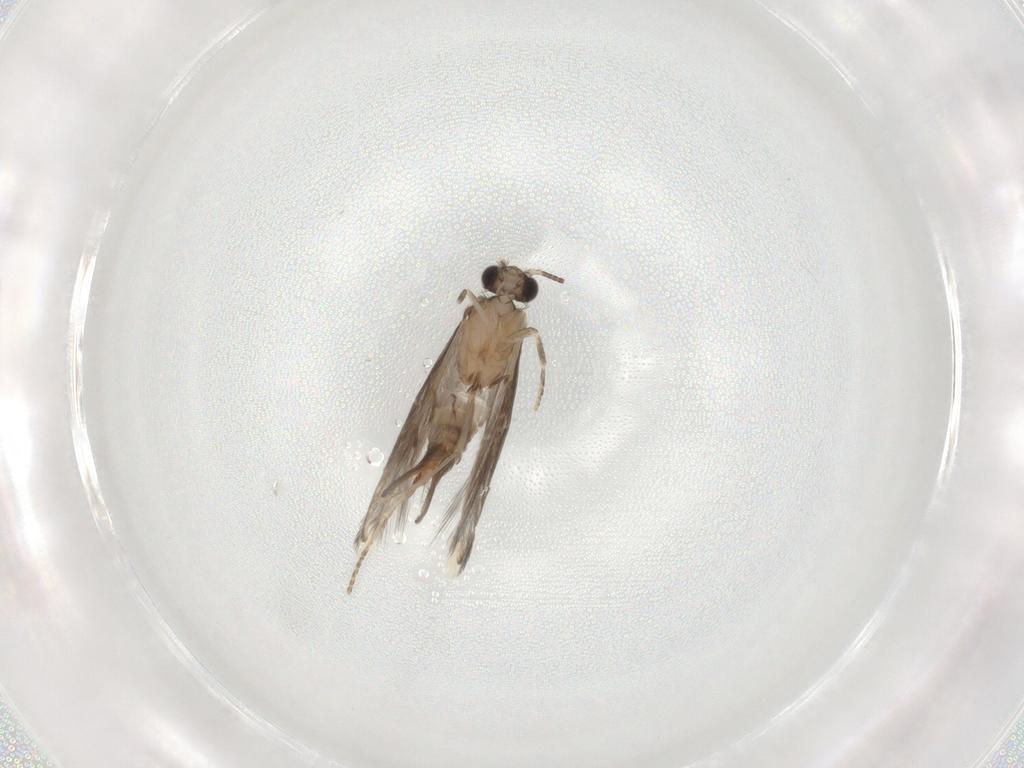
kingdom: Animalia
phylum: Arthropoda
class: Insecta
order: Trichoptera
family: Hydroptilidae
